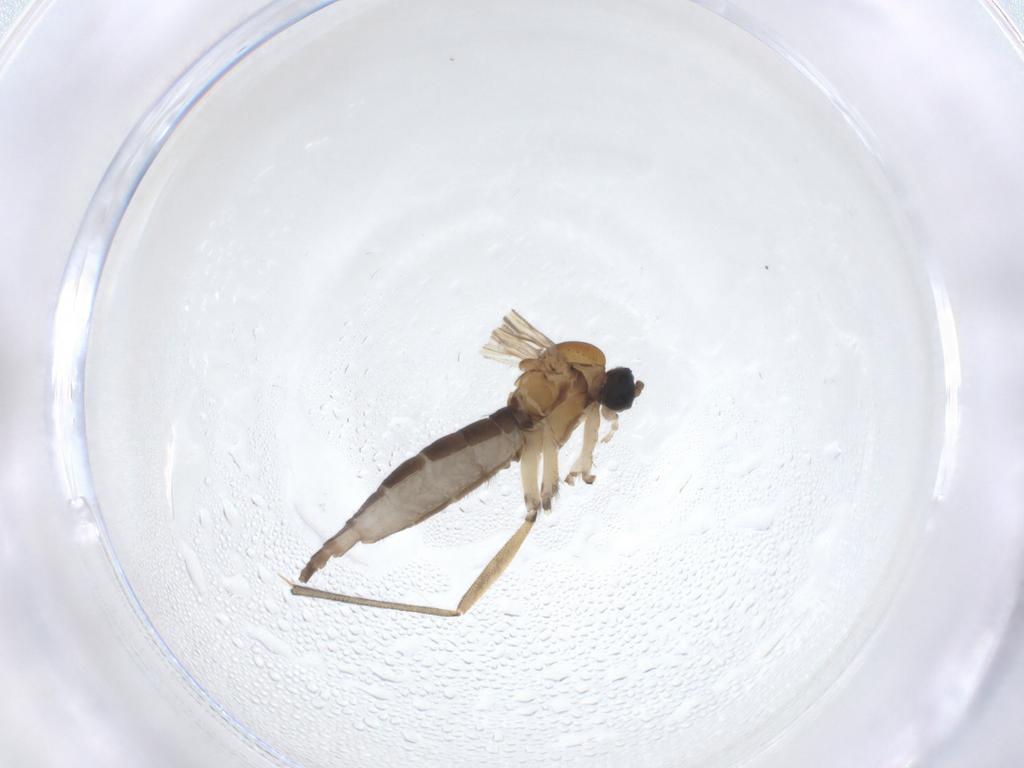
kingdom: Animalia
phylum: Arthropoda
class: Insecta
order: Diptera
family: Sciaridae
